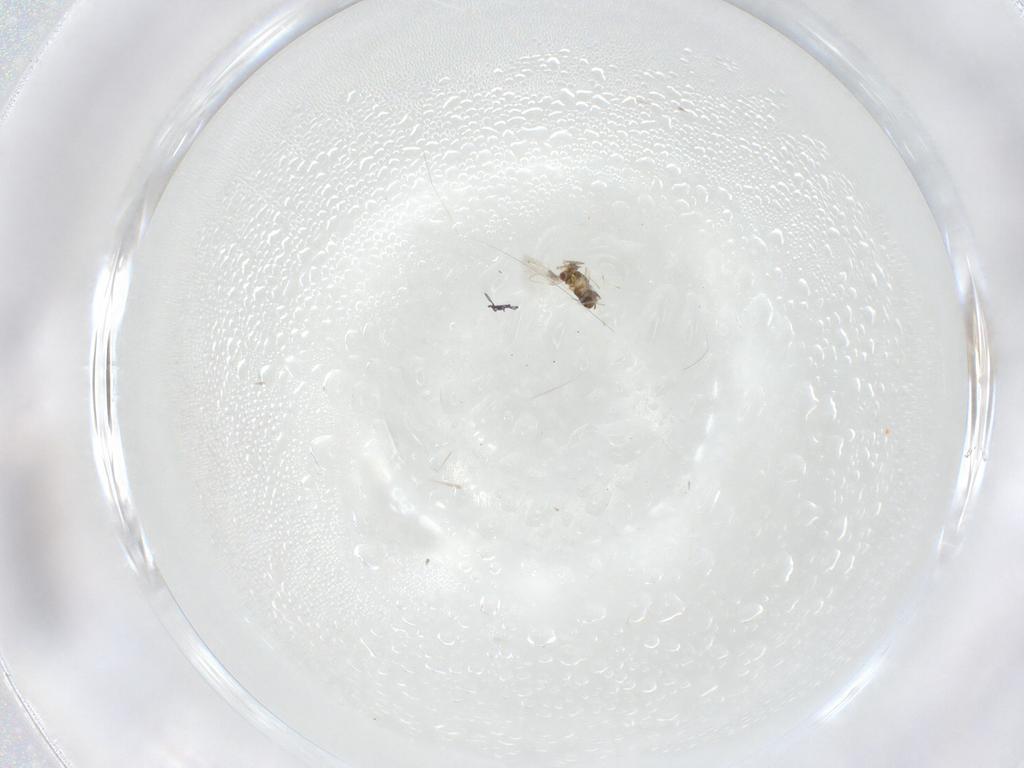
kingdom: Animalia
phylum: Arthropoda
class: Insecta
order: Hymenoptera
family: Aphelinidae
